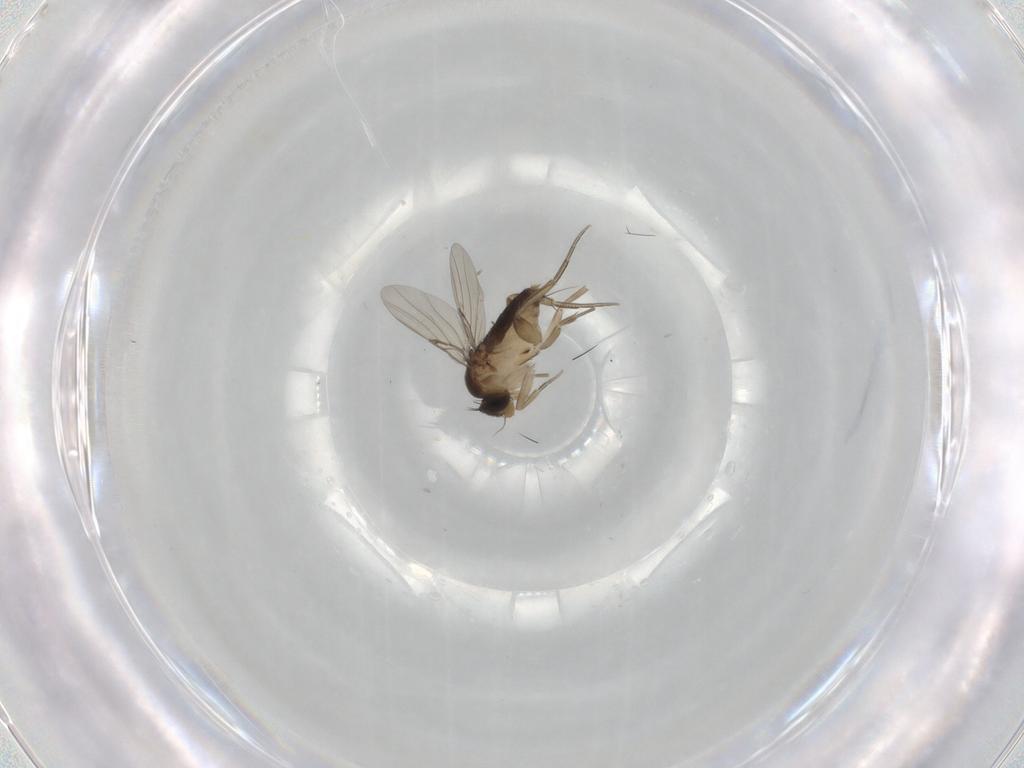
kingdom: Animalia
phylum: Arthropoda
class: Insecta
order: Diptera
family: Phoridae
